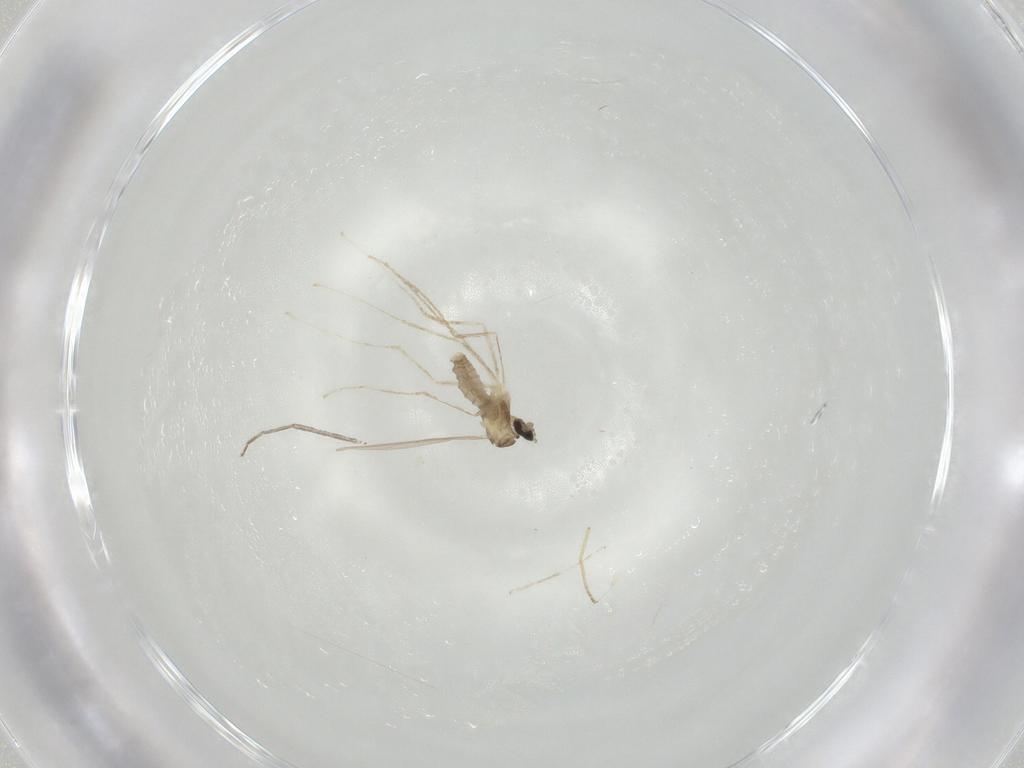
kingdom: Animalia
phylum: Arthropoda
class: Insecta
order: Diptera
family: Cecidomyiidae
